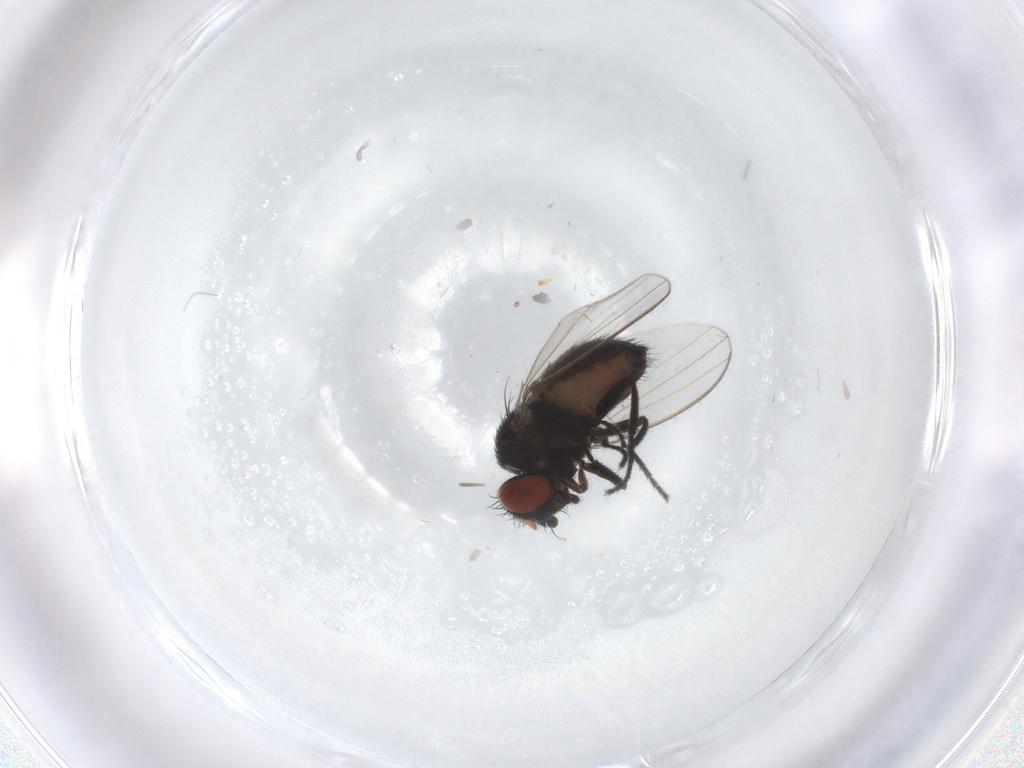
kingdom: Animalia
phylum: Arthropoda
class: Insecta
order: Diptera
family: Milichiidae
